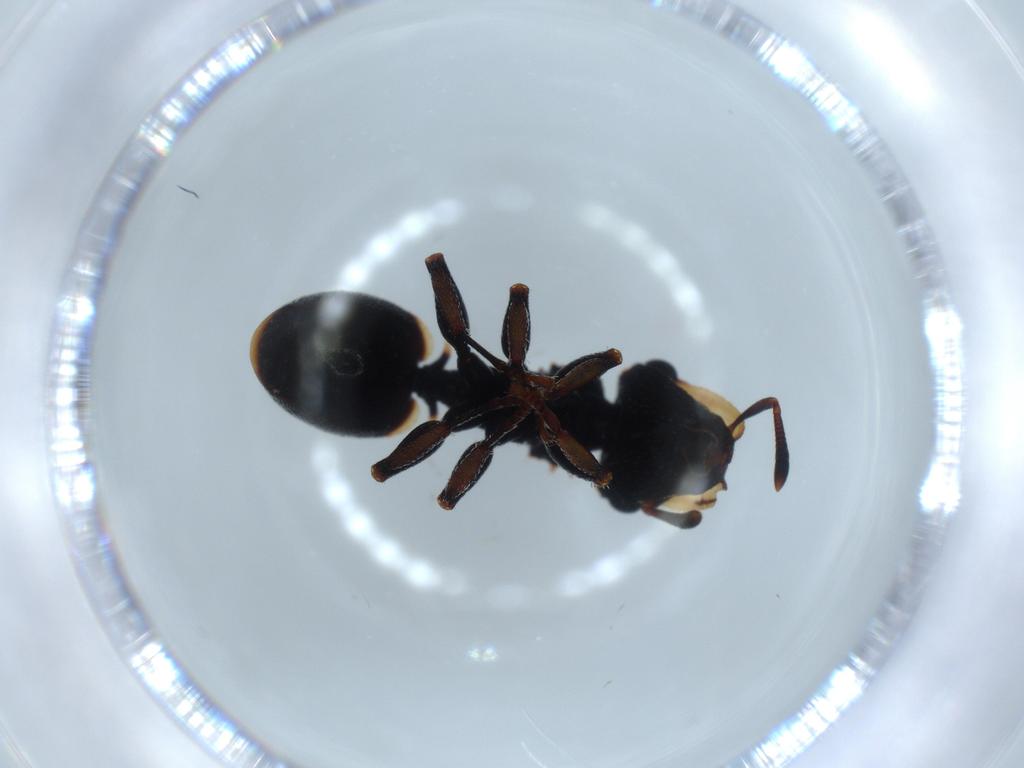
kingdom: Animalia
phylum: Arthropoda
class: Insecta
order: Hymenoptera
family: Formicidae
